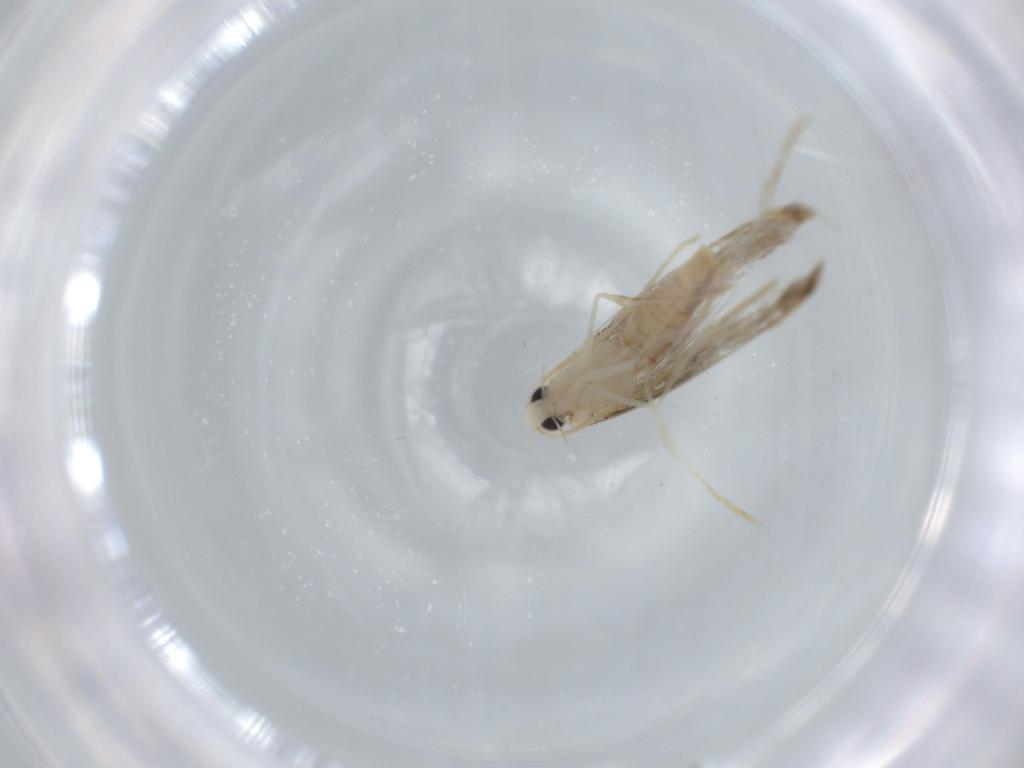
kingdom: Animalia
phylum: Arthropoda
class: Insecta
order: Lepidoptera
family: Lyonetiidae
